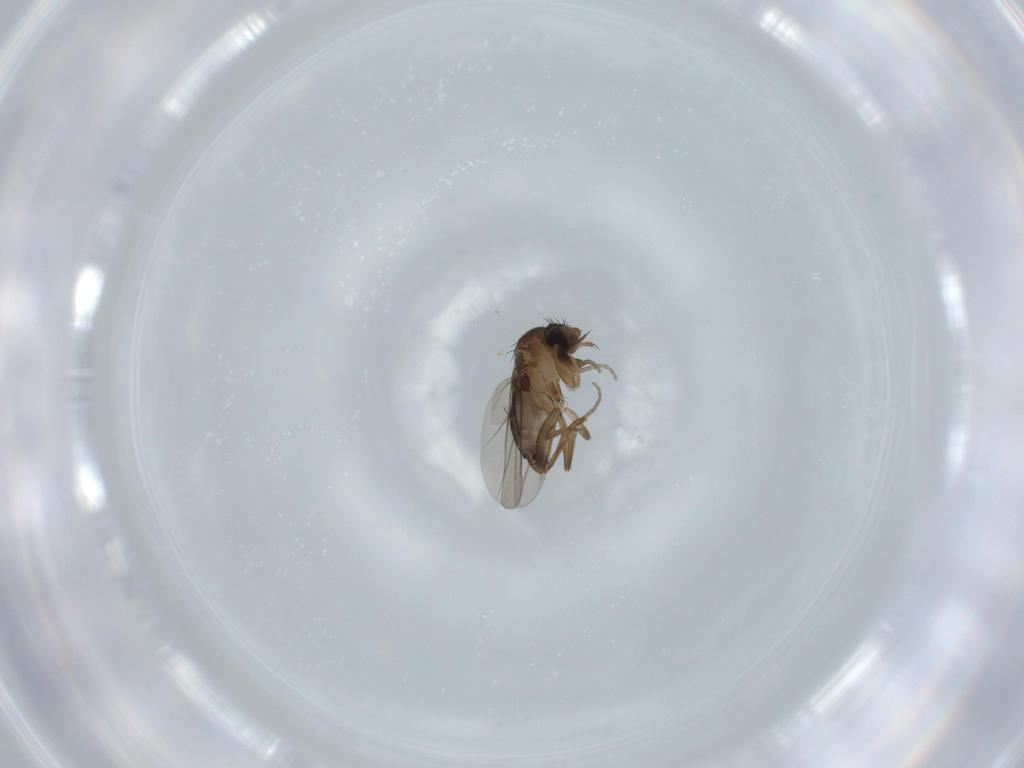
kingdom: Animalia
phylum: Arthropoda
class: Insecta
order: Diptera
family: Phoridae
